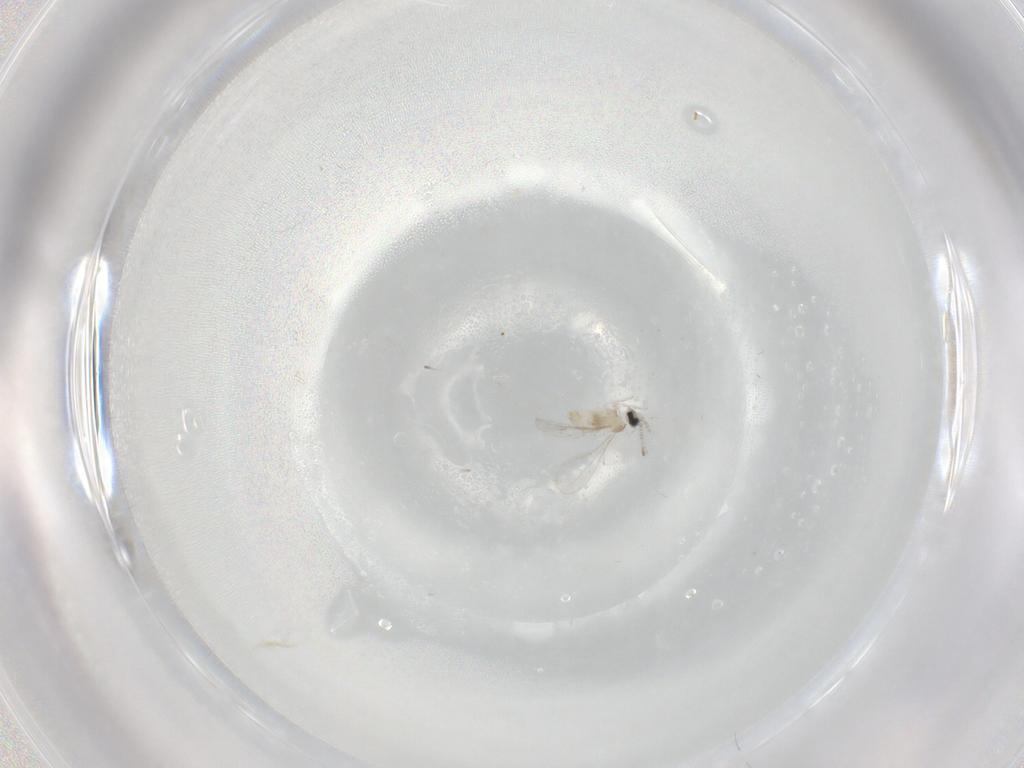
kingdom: Animalia
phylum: Arthropoda
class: Insecta
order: Diptera
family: Cecidomyiidae
